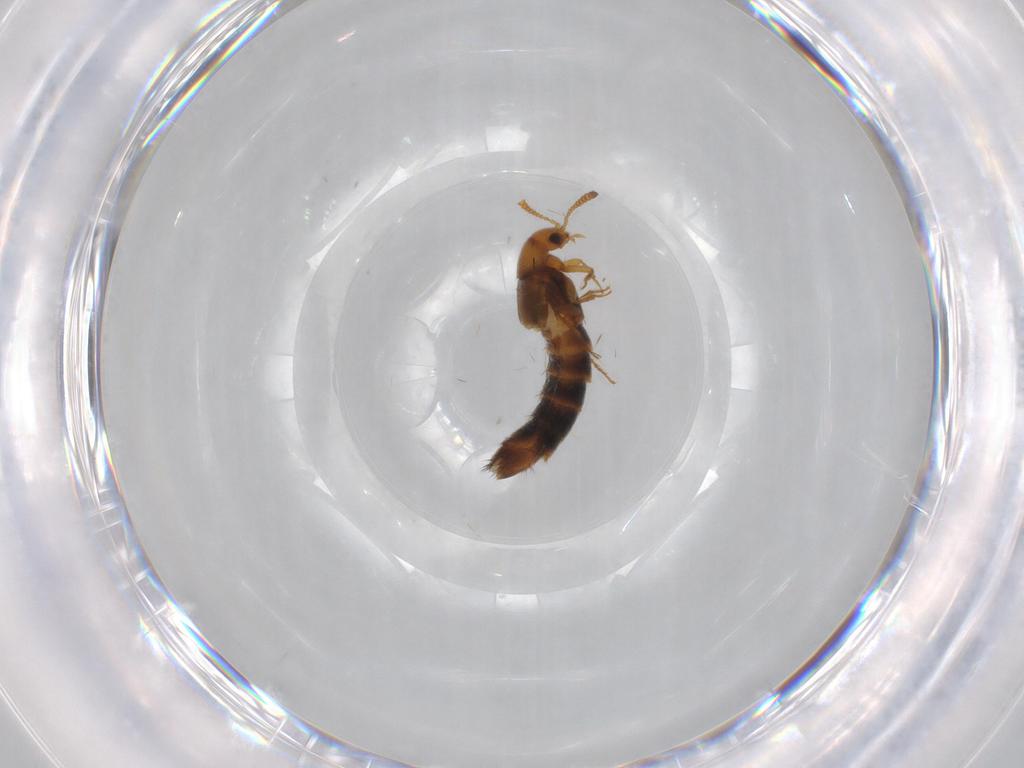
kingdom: Animalia
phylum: Arthropoda
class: Insecta
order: Coleoptera
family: Staphylinidae
